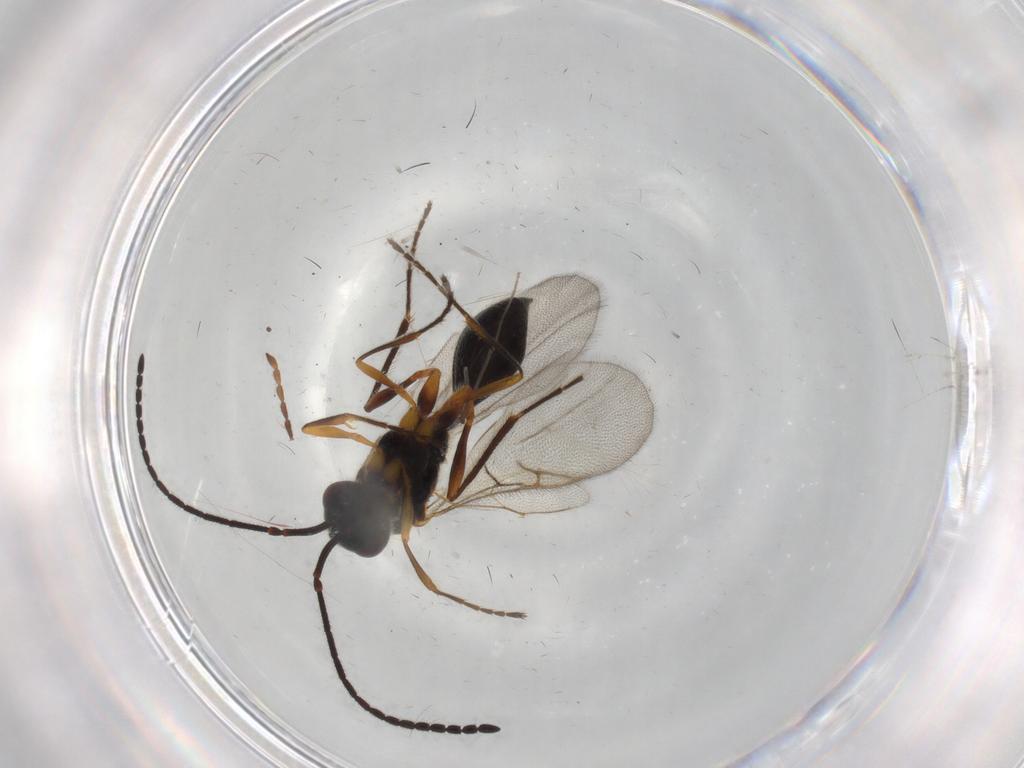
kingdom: Animalia
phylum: Arthropoda
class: Insecta
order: Hymenoptera
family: Diapriidae
